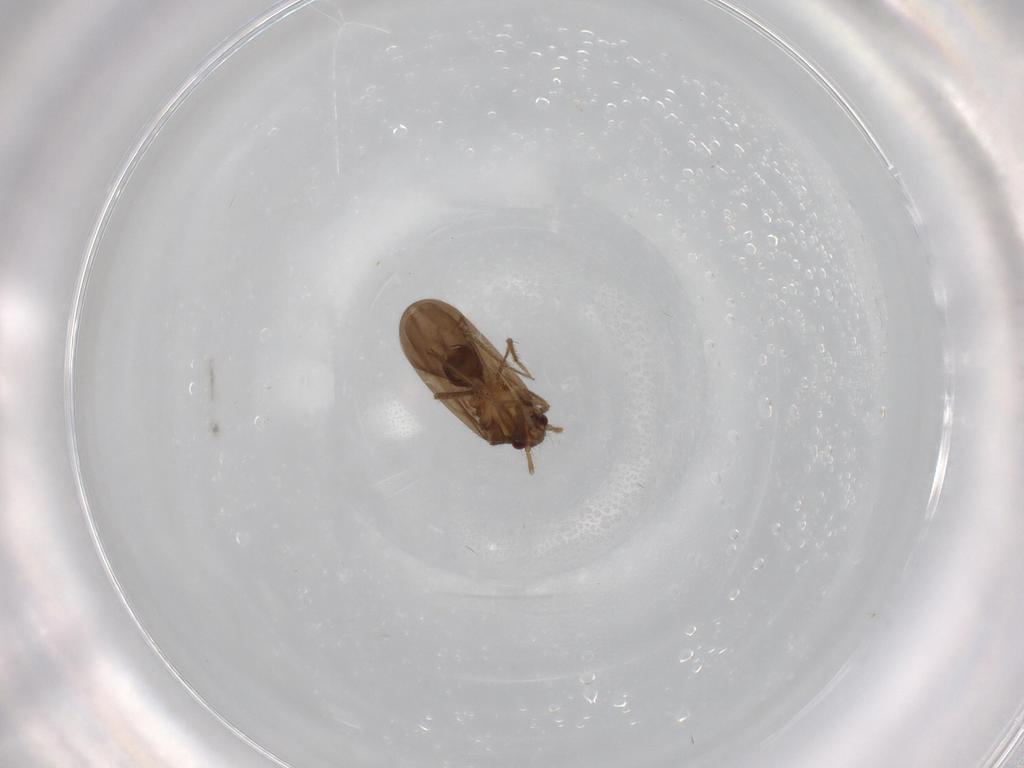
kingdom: Animalia
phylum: Arthropoda
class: Insecta
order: Hemiptera
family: Ceratocombidae
